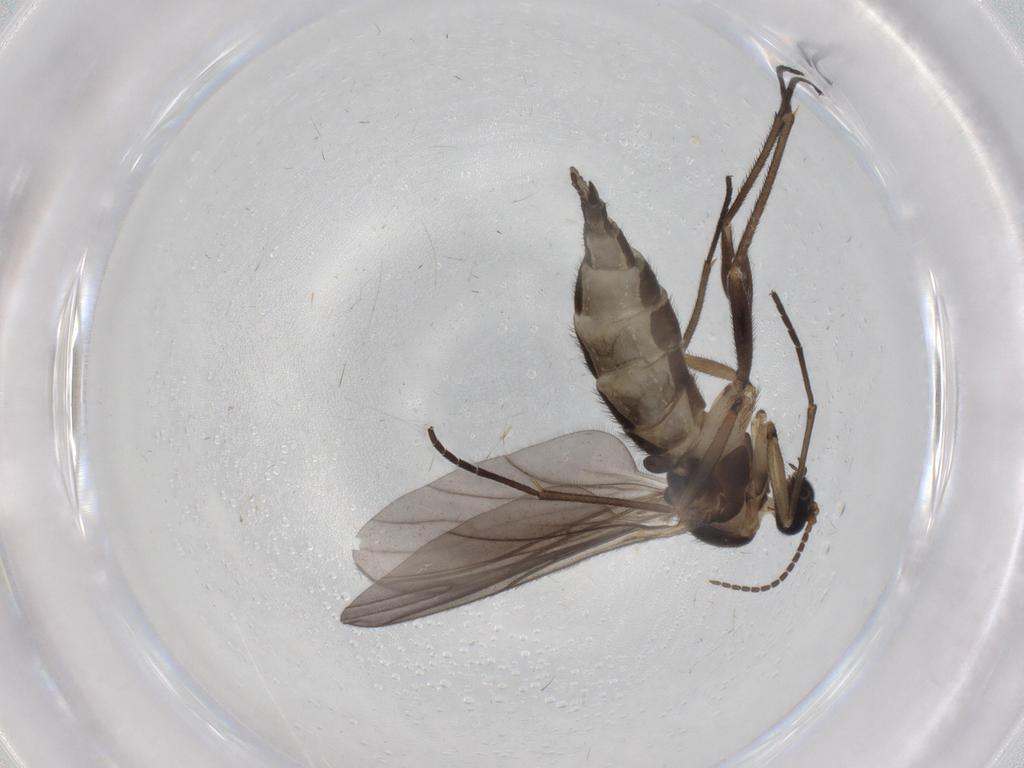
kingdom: Animalia
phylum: Arthropoda
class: Insecta
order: Diptera
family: Sciaridae
